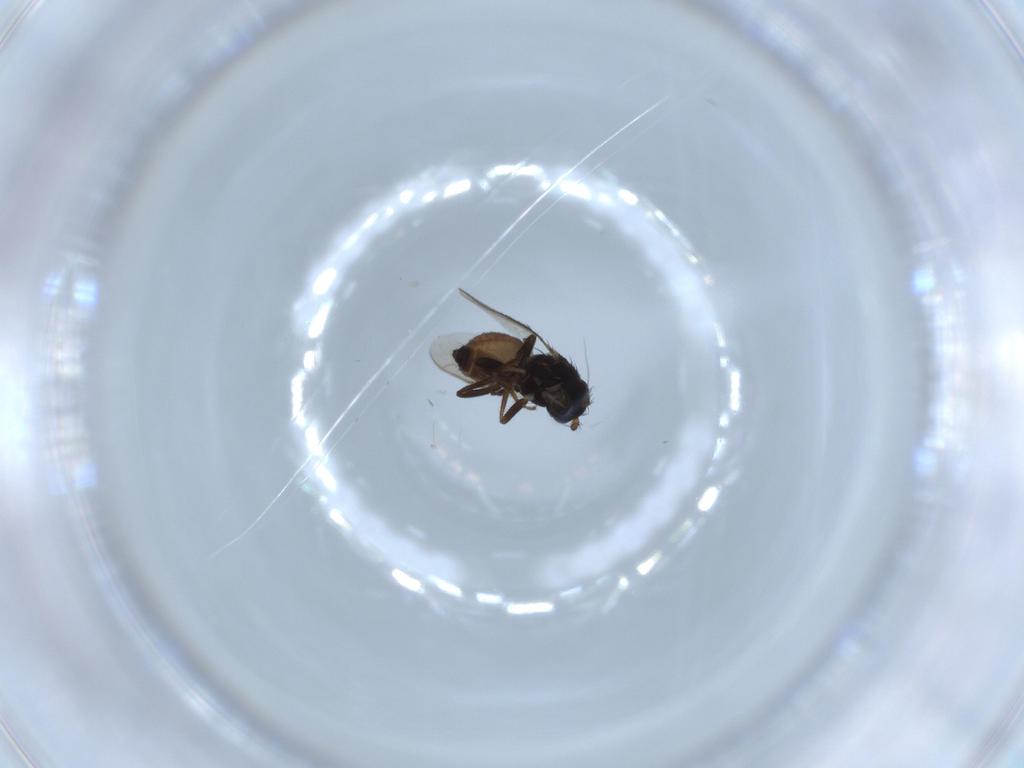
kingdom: Animalia
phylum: Arthropoda
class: Insecta
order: Diptera
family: Sphaeroceridae
